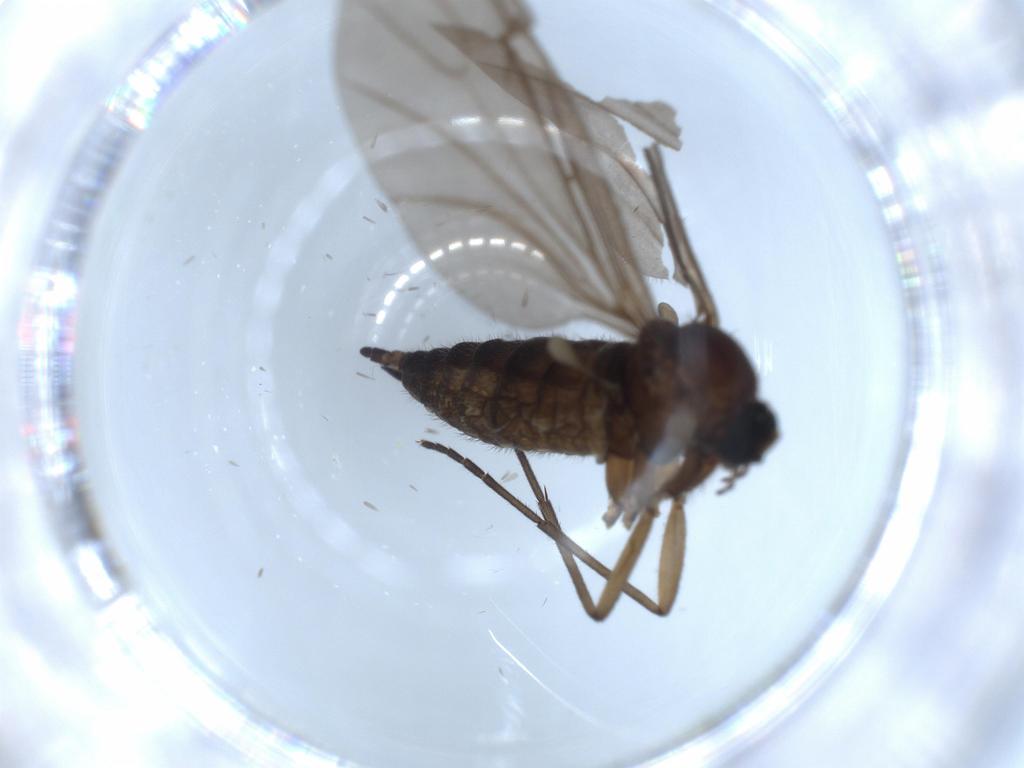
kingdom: Animalia
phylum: Arthropoda
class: Insecta
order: Diptera
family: Sciaridae
